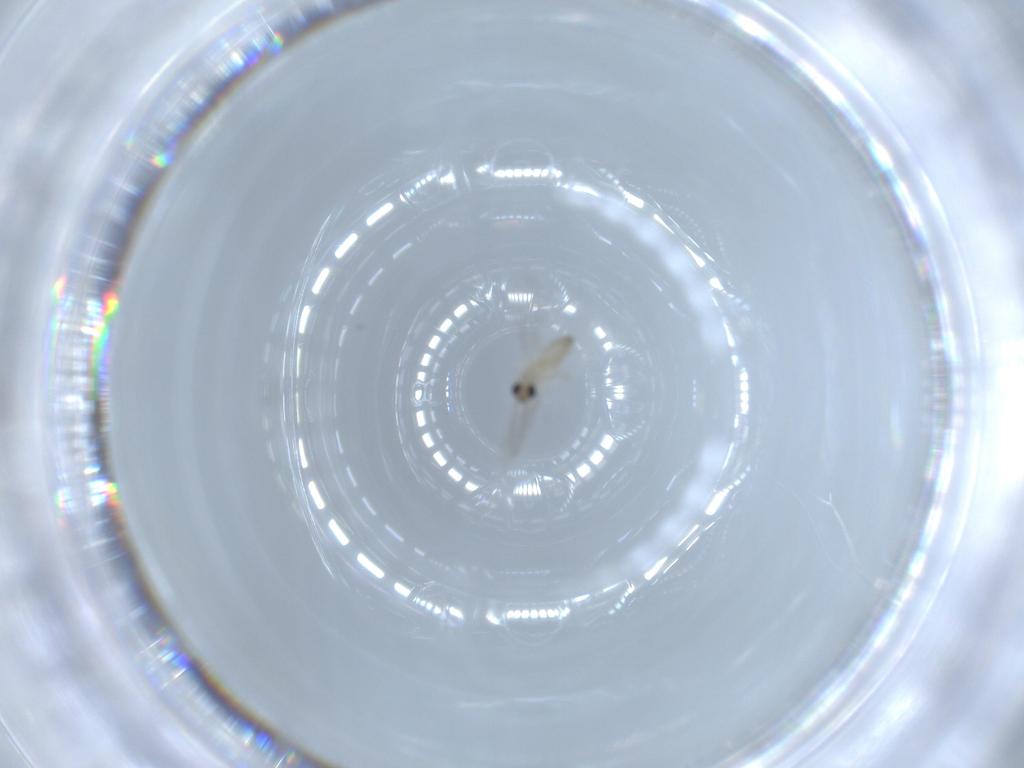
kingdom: Animalia
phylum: Arthropoda
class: Insecta
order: Diptera
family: Cecidomyiidae
